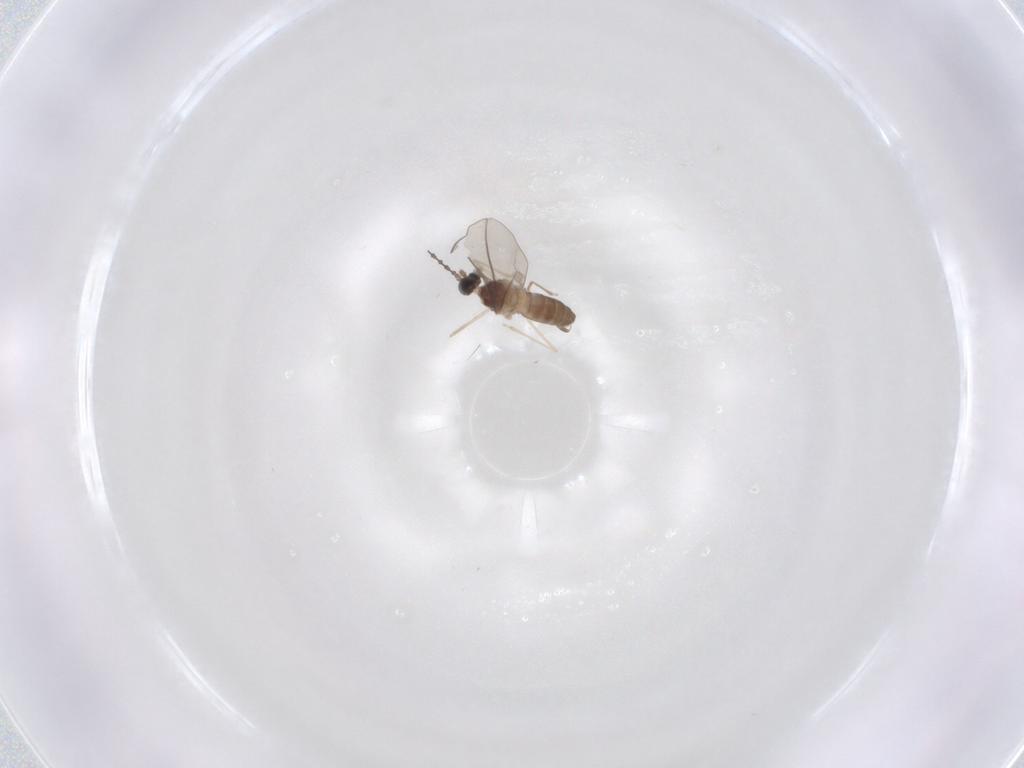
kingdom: Animalia
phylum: Arthropoda
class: Insecta
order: Diptera
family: Cecidomyiidae
